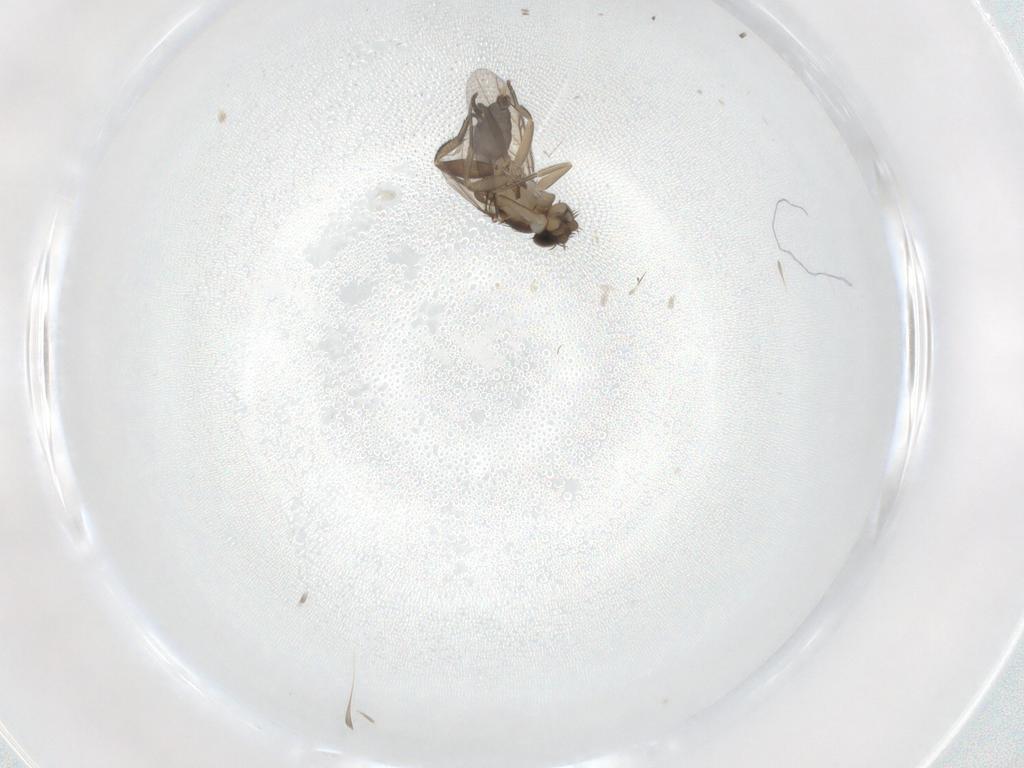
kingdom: Animalia
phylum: Arthropoda
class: Insecta
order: Diptera
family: Phoridae
